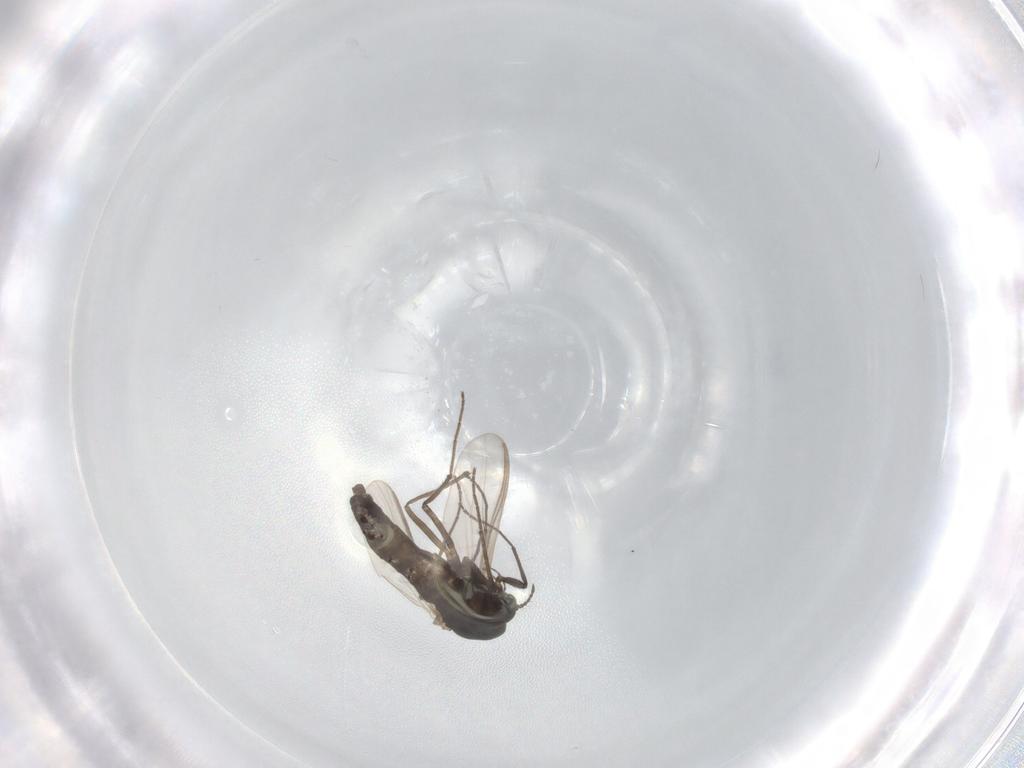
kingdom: Animalia
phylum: Arthropoda
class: Insecta
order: Diptera
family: Chironomidae
